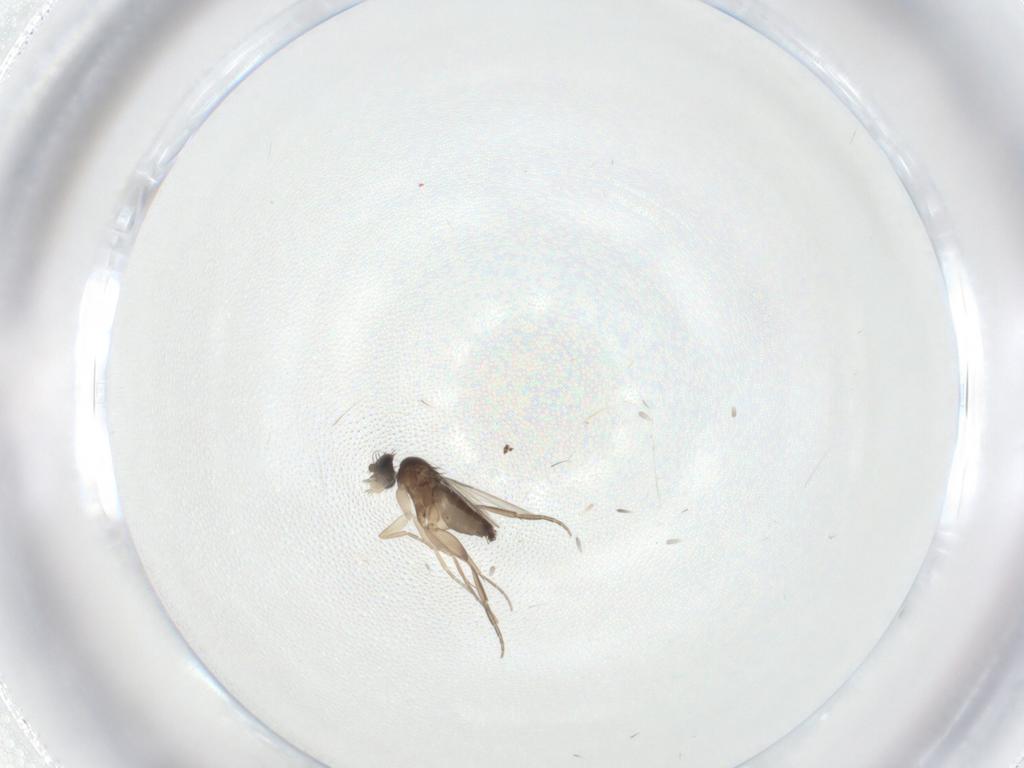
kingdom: Animalia
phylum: Arthropoda
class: Insecta
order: Diptera
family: Phoridae
